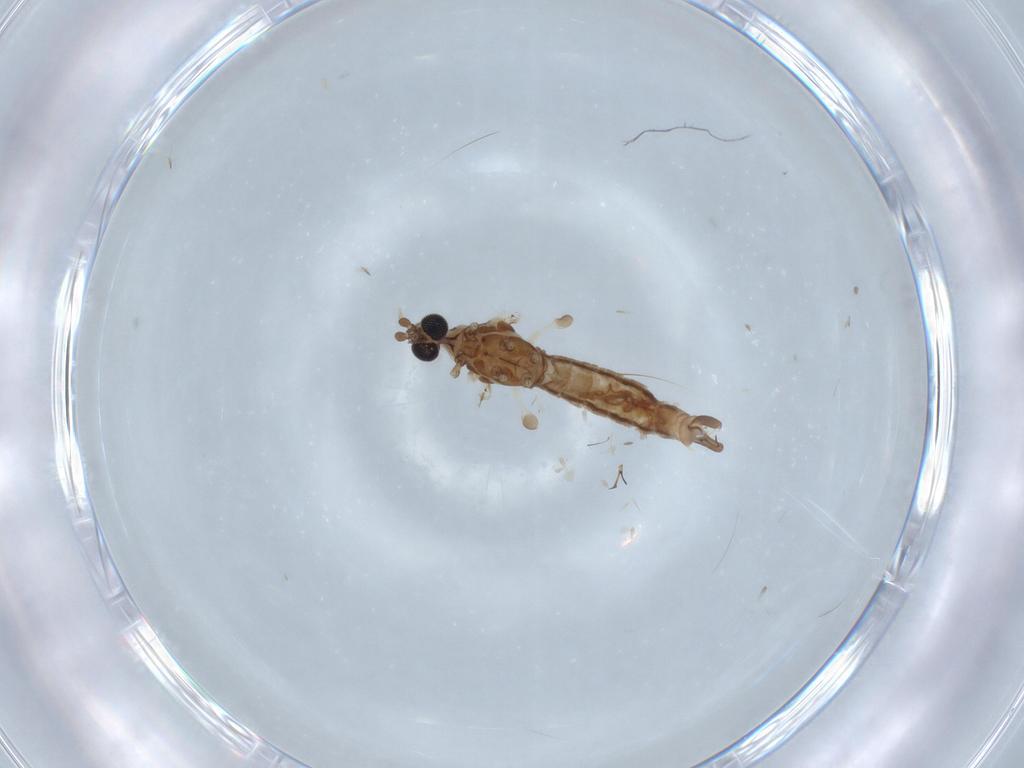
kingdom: Animalia
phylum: Arthropoda
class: Insecta
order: Diptera
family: Limoniidae
